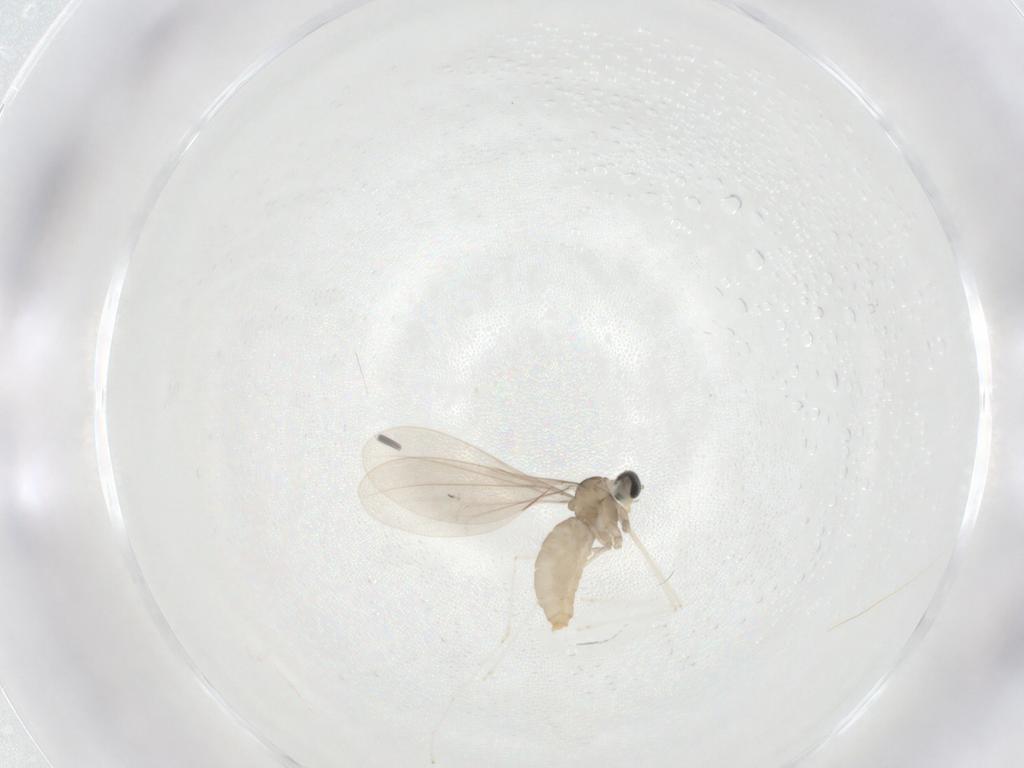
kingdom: Animalia
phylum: Arthropoda
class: Insecta
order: Diptera
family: Cecidomyiidae
